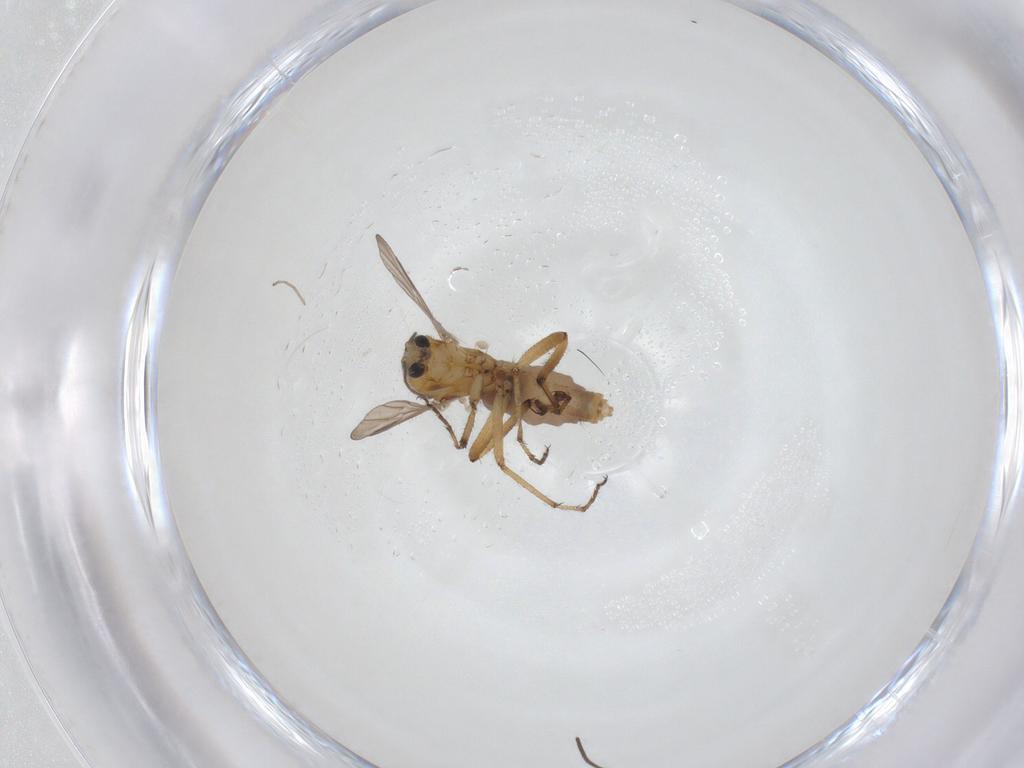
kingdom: Animalia
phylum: Arthropoda
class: Insecta
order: Diptera
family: Ceratopogonidae
